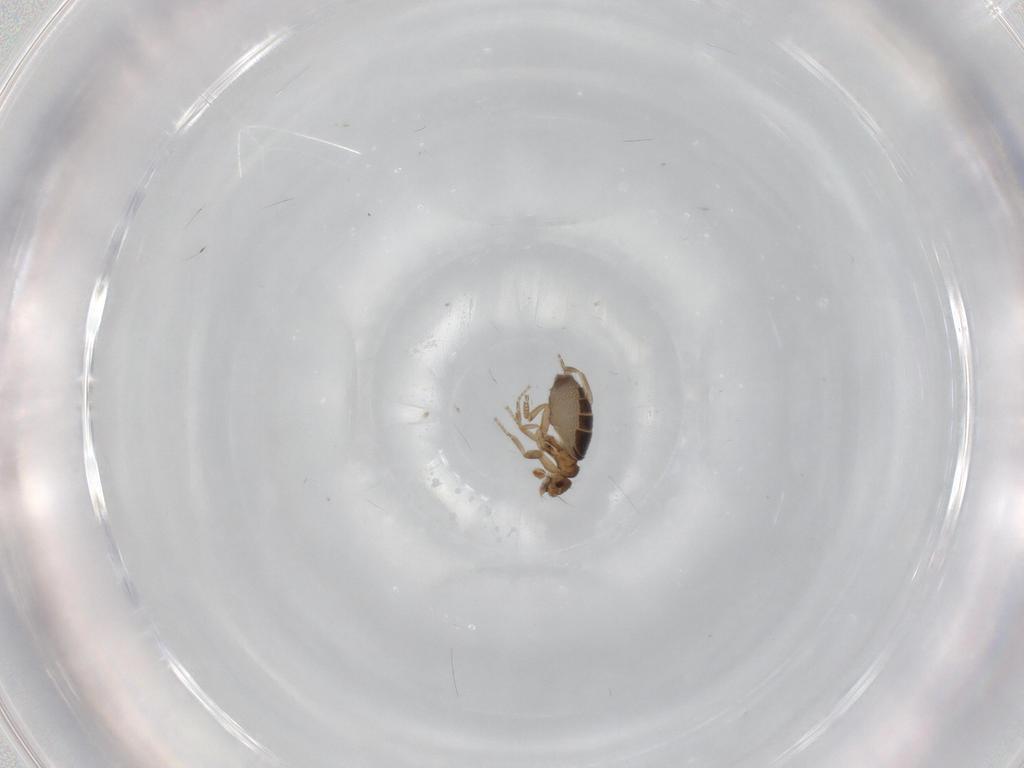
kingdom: Animalia
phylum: Arthropoda
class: Insecta
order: Diptera
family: Phoridae
